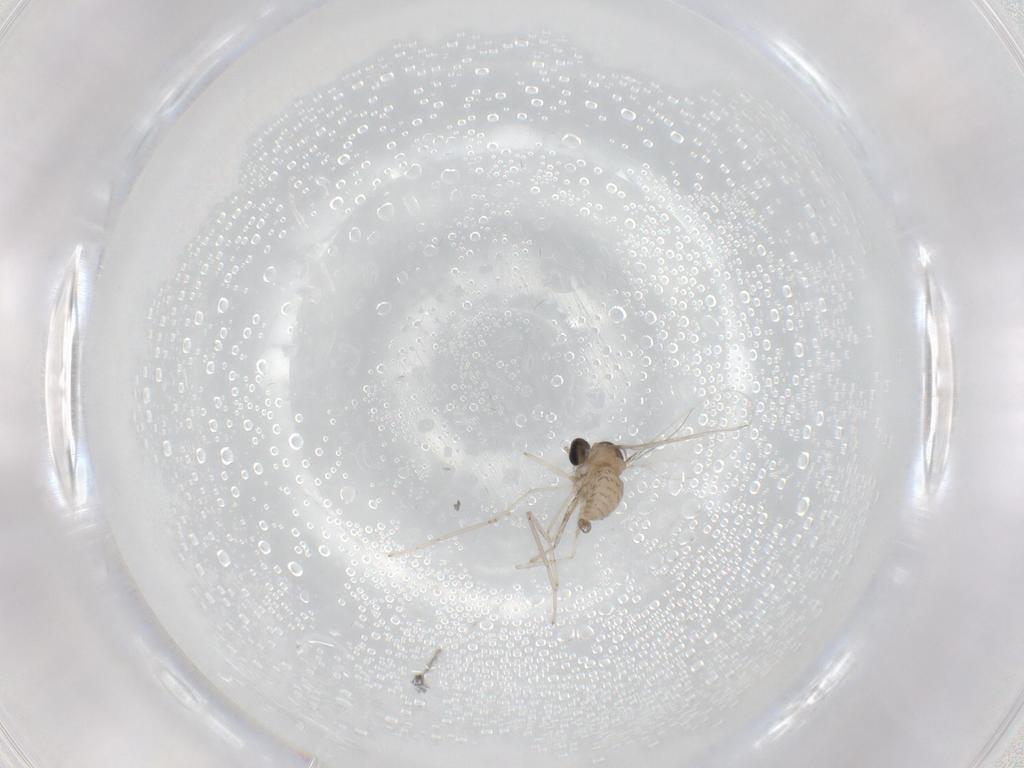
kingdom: Animalia
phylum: Arthropoda
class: Insecta
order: Diptera
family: Cecidomyiidae
